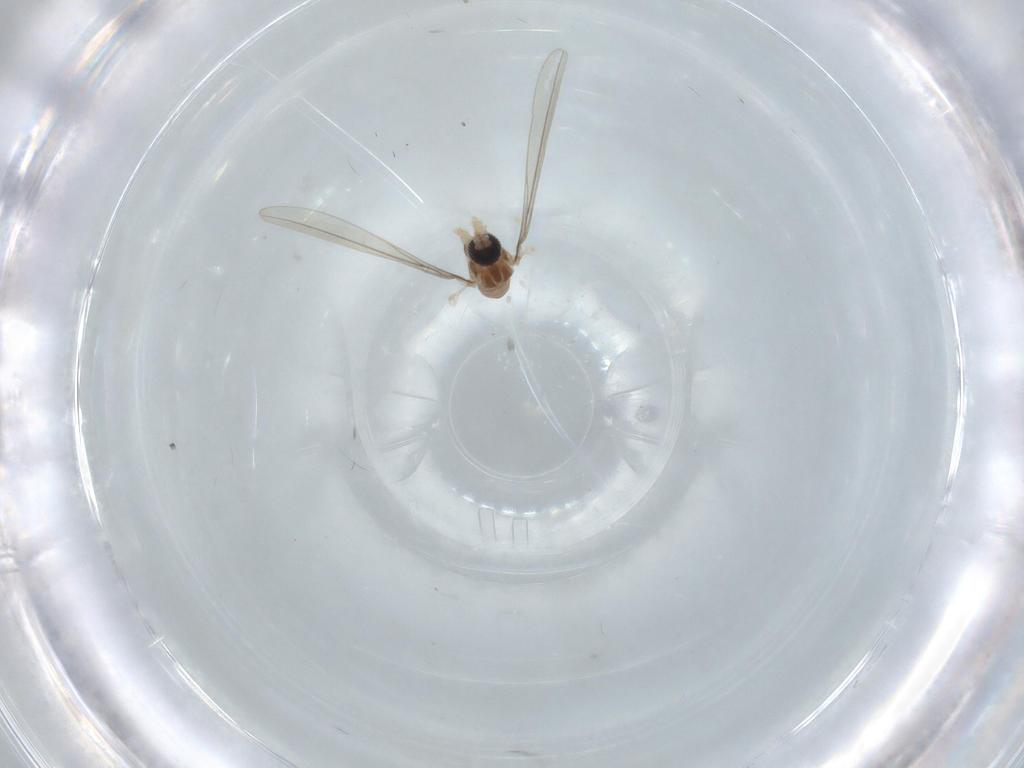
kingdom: Animalia
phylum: Arthropoda
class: Insecta
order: Diptera
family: Cecidomyiidae
